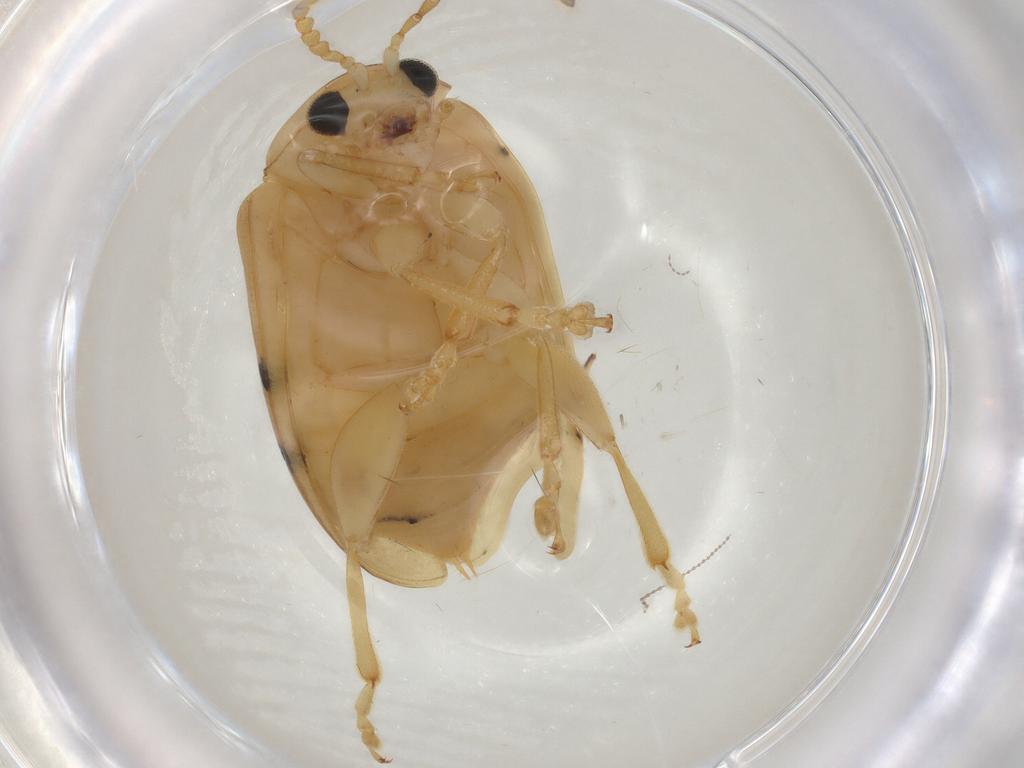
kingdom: Animalia
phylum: Arthropoda
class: Insecta
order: Coleoptera
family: Chrysomelidae
